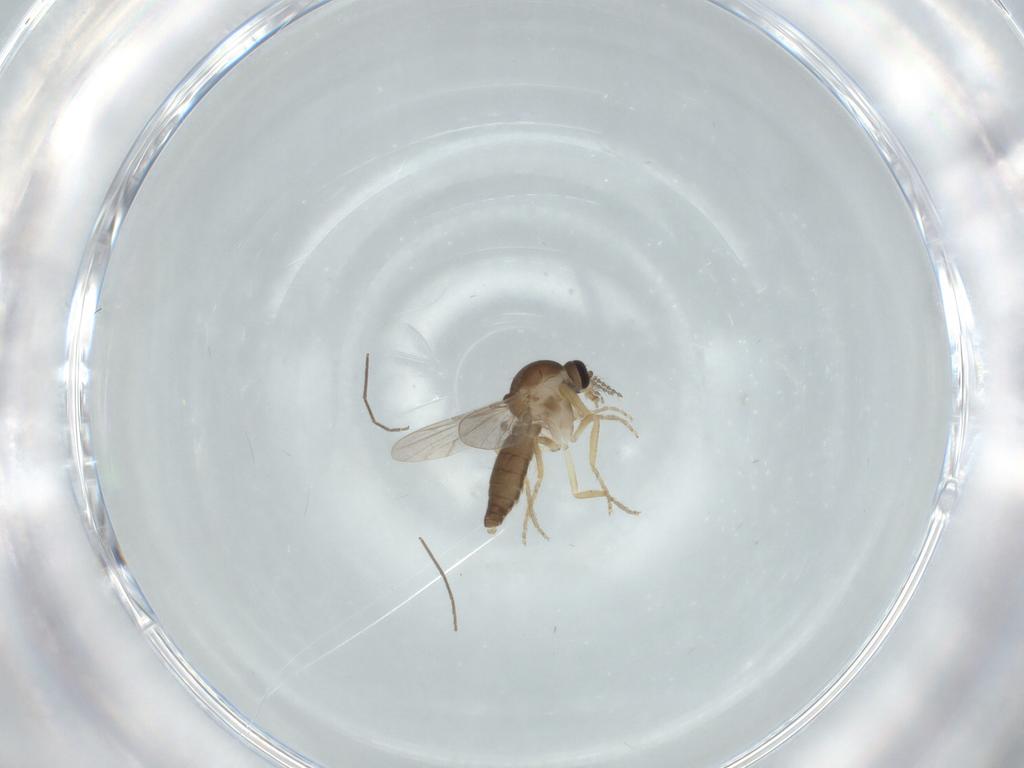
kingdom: Animalia
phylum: Arthropoda
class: Insecta
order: Diptera
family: Ceratopogonidae
